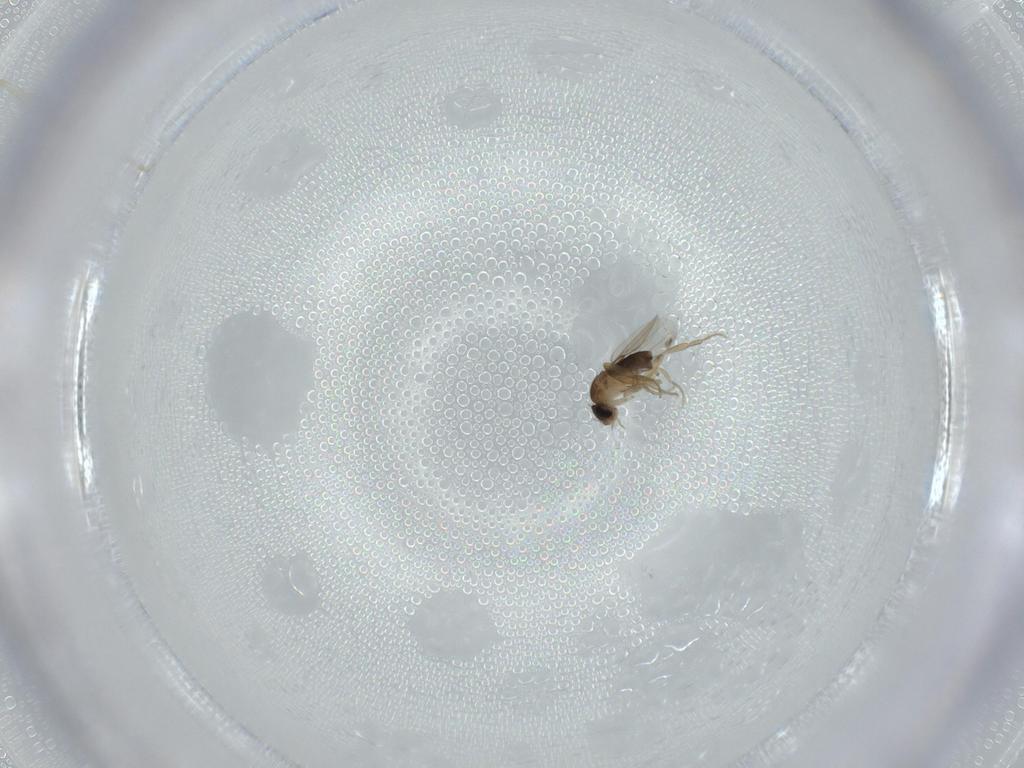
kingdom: Animalia
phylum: Arthropoda
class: Insecta
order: Diptera
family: Phoridae
